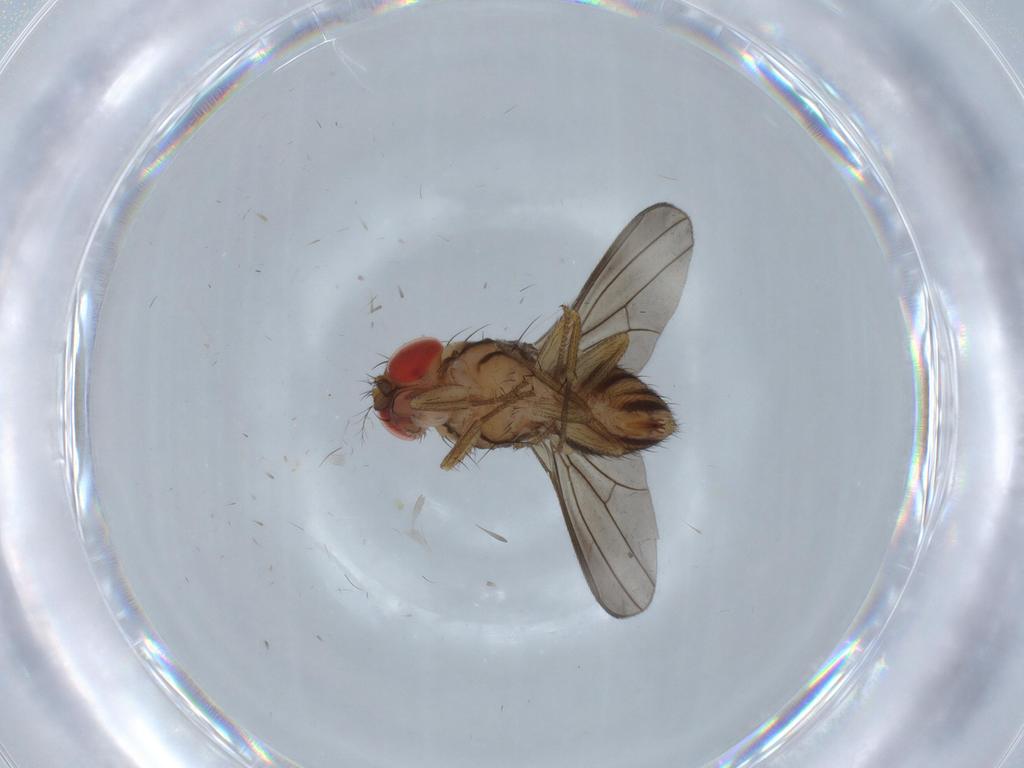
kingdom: Animalia
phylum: Arthropoda
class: Insecta
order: Diptera
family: Drosophilidae
